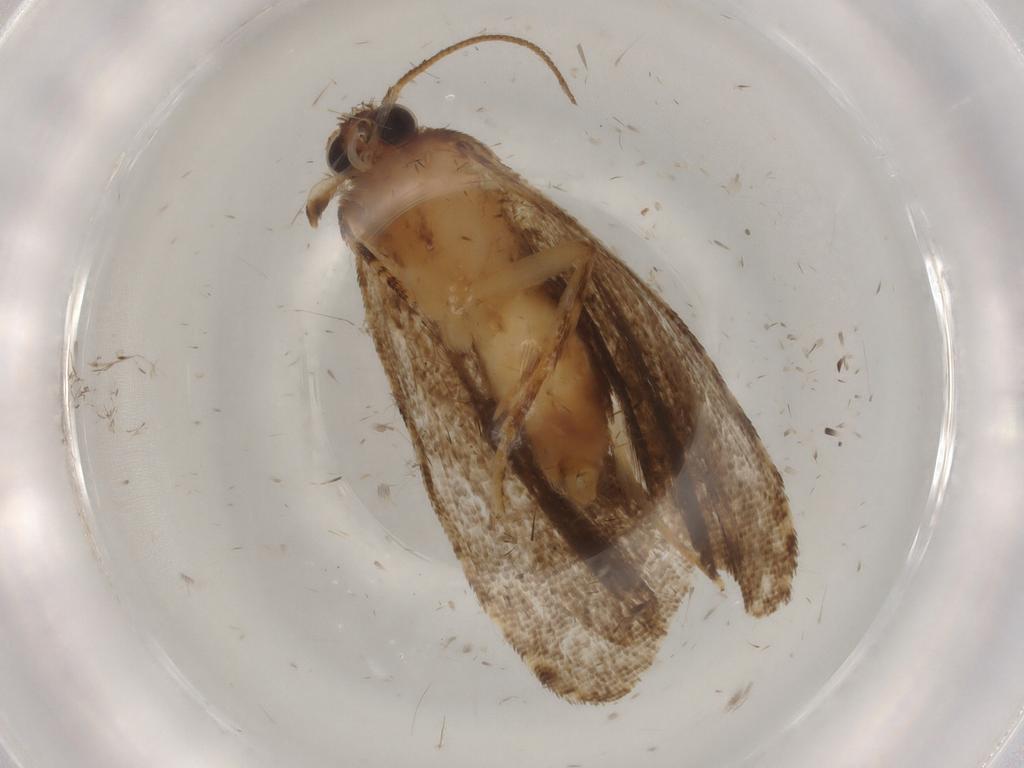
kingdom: Animalia
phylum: Arthropoda
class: Insecta
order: Lepidoptera
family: Tortricidae
